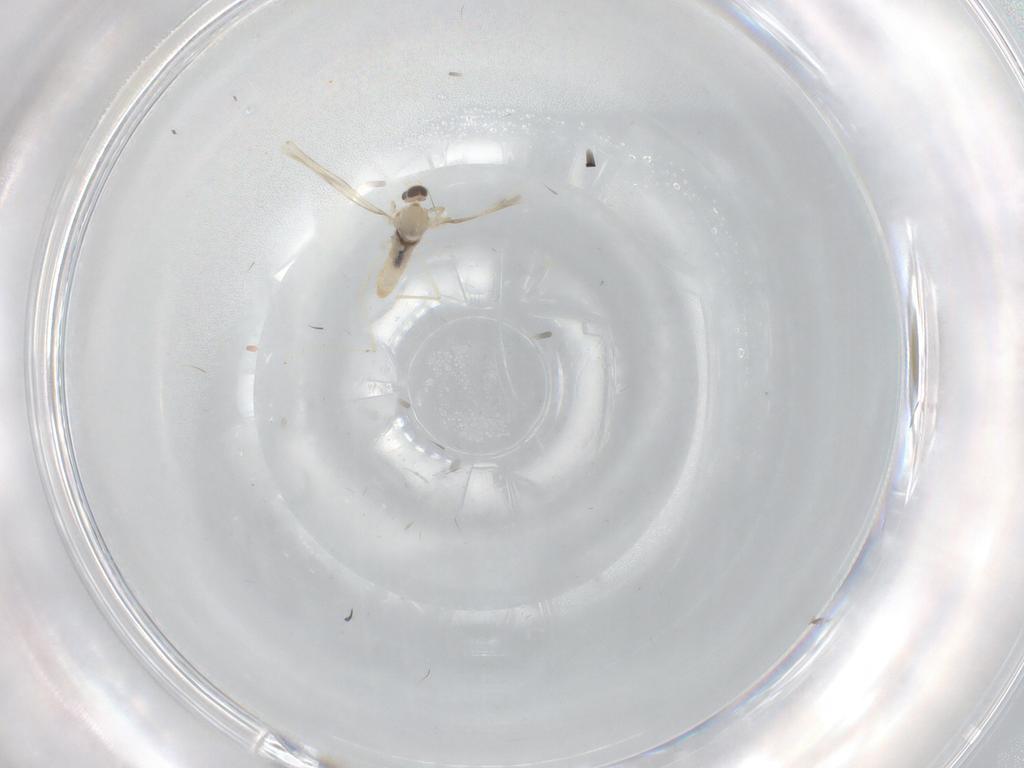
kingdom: Animalia
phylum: Arthropoda
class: Insecta
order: Diptera
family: Cecidomyiidae
